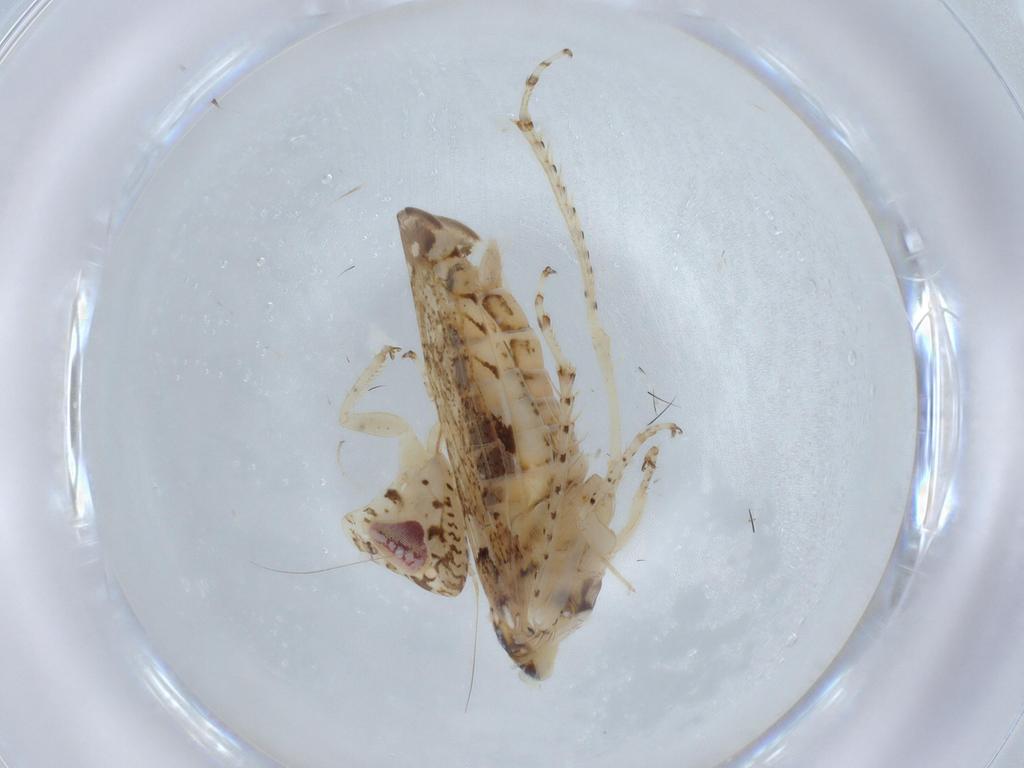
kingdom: Animalia
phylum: Arthropoda
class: Insecta
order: Hemiptera
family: Cicadellidae
